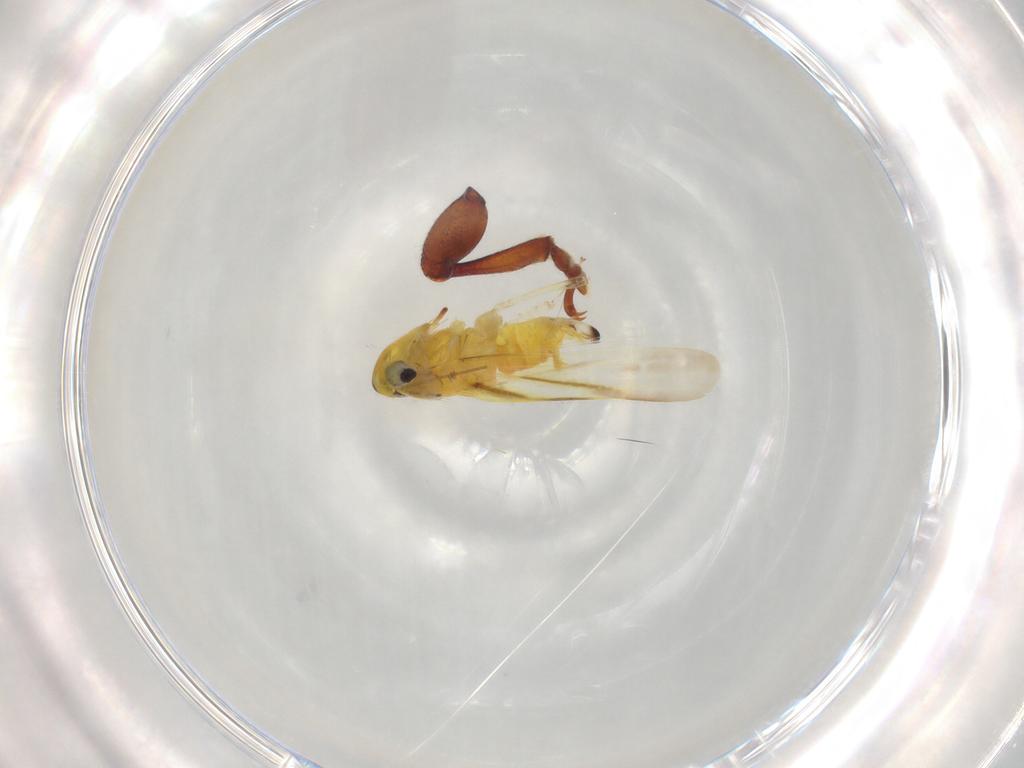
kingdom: Animalia
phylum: Arthropoda
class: Insecta
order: Hemiptera
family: Cicadellidae
